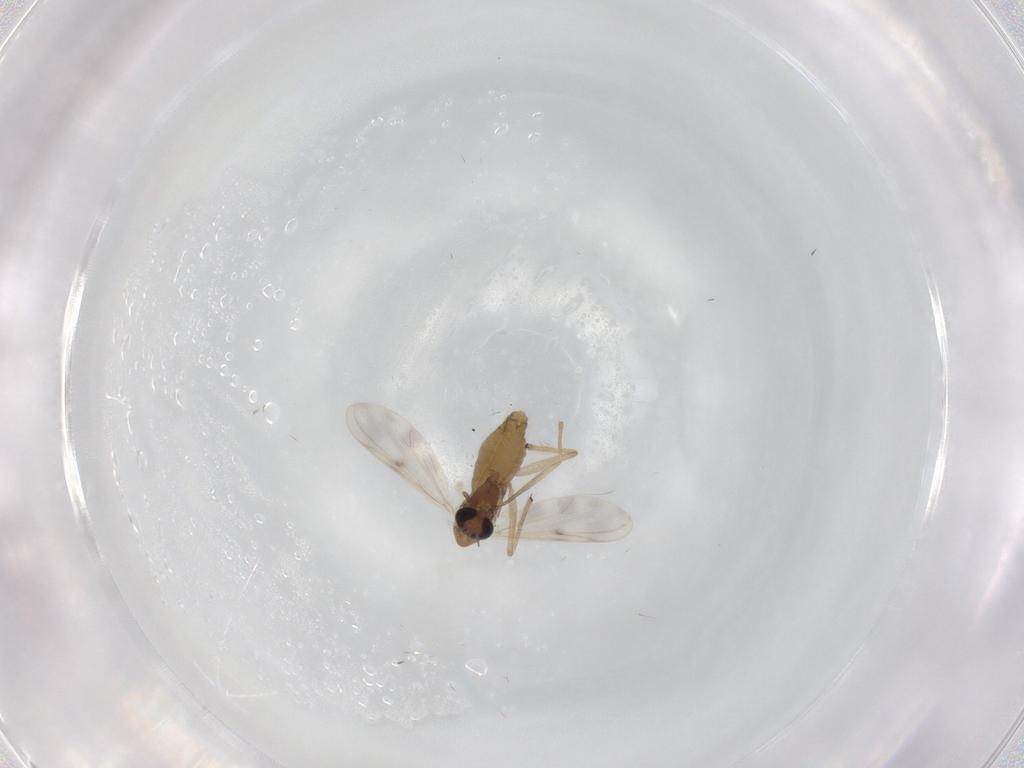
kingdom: Animalia
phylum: Arthropoda
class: Insecta
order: Diptera
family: Chironomidae
